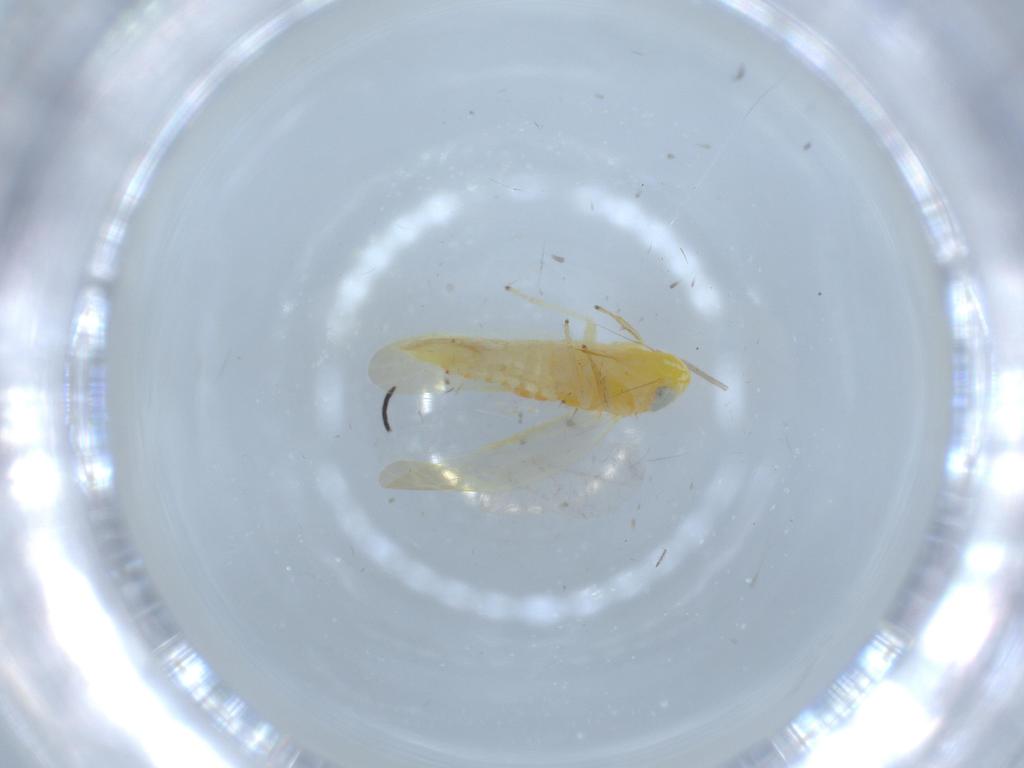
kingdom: Animalia
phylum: Arthropoda
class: Insecta
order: Hemiptera
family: Cicadellidae
